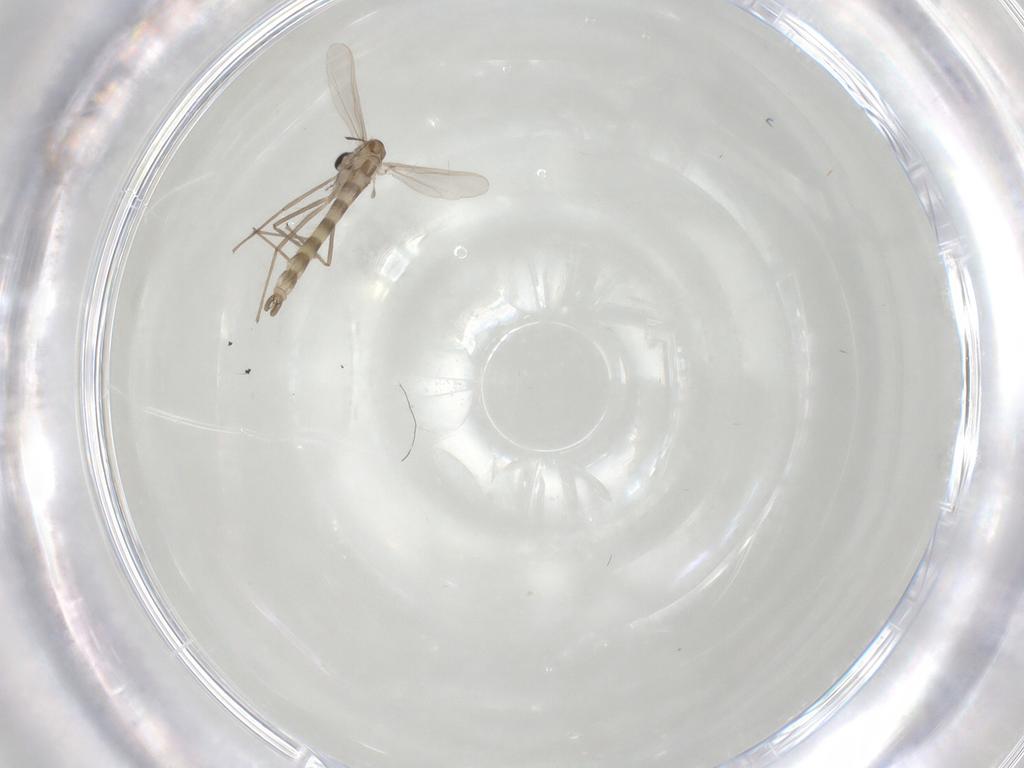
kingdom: Animalia
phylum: Arthropoda
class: Insecta
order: Diptera
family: Chironomidae
